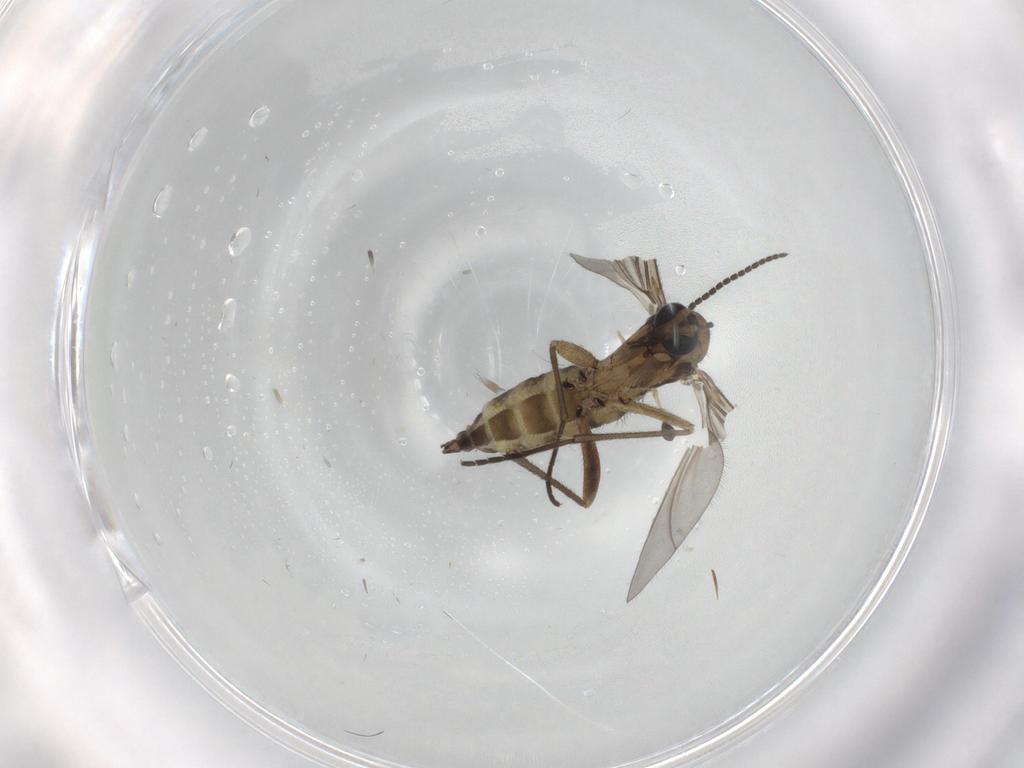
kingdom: Animalia
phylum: Arthropoda
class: Insecta
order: Diptera
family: Sciaridae
